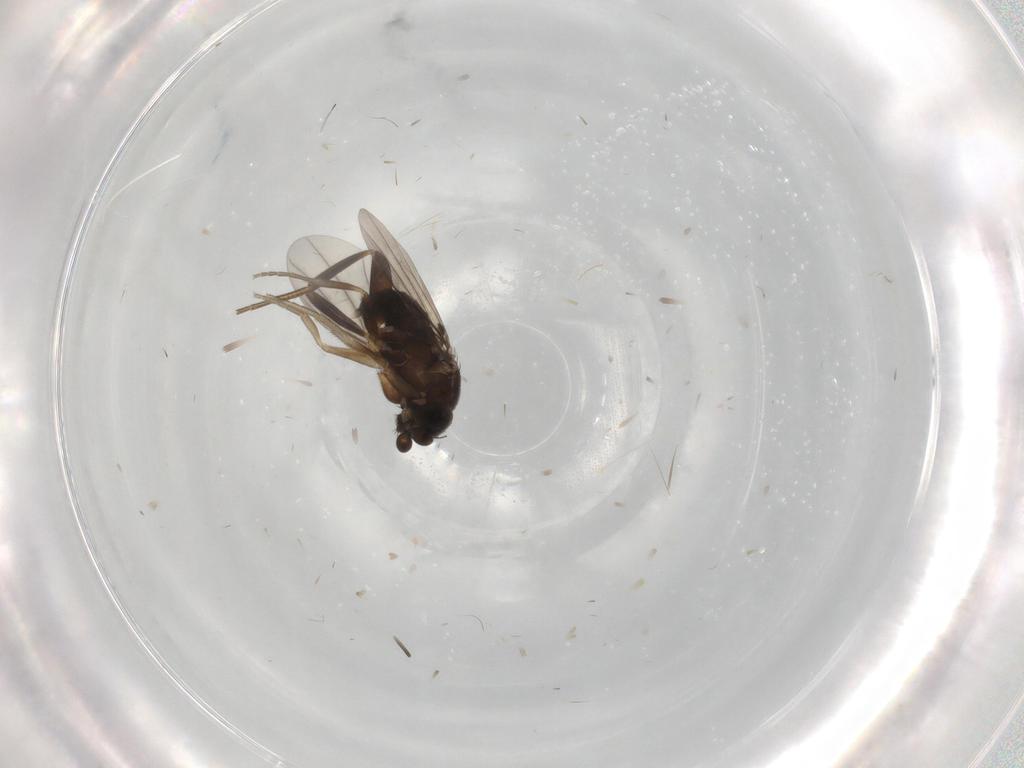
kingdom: Animalia
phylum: Arthropoda
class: Insecta
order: Diptera
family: Phoridae
